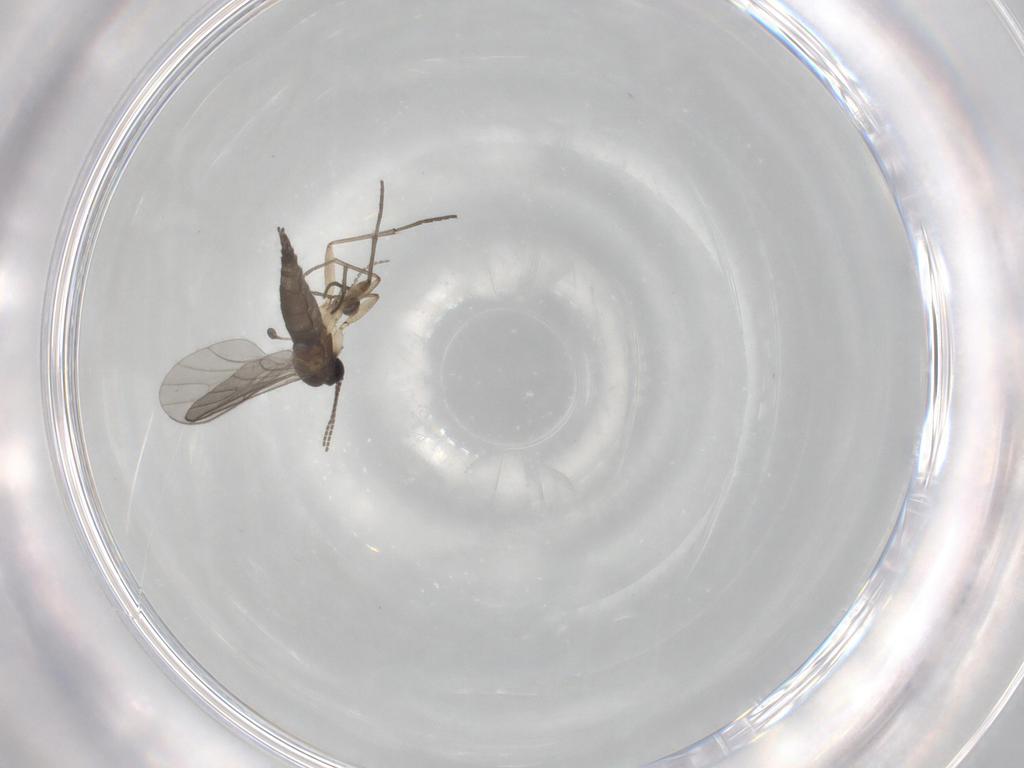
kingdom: Animalia
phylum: Arthropoda
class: Insecta
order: Diptera
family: Sciaridae
